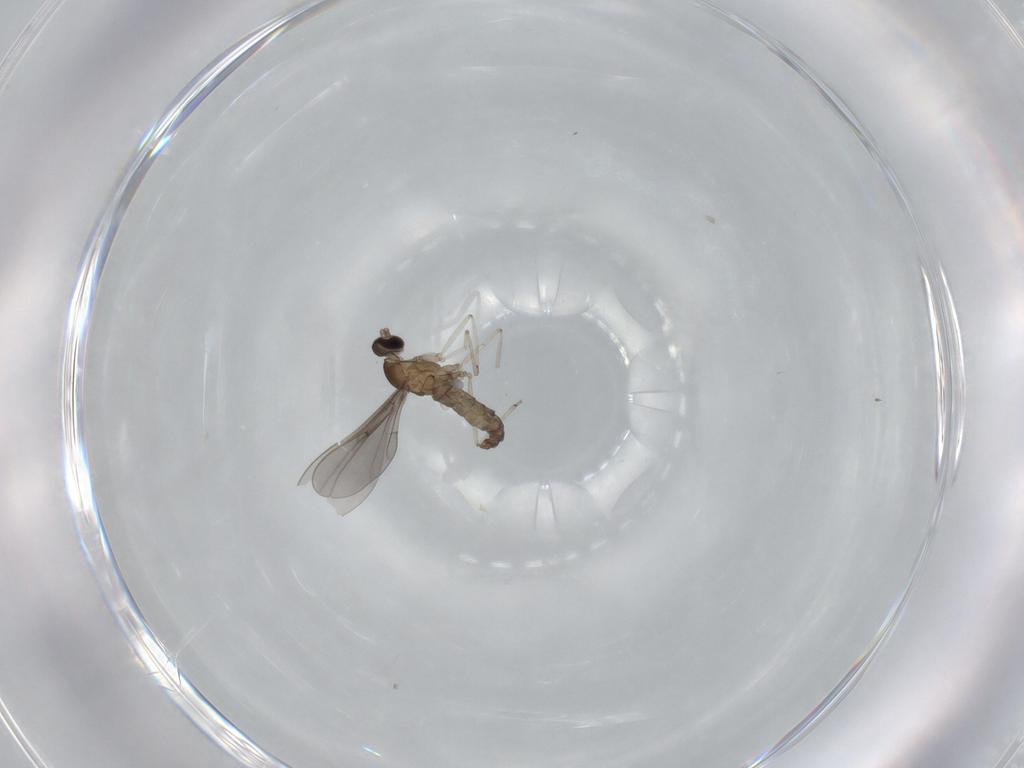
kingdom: Animalia
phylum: Arthropoda
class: Insecta
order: Diptera
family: Cecidomyiidae
